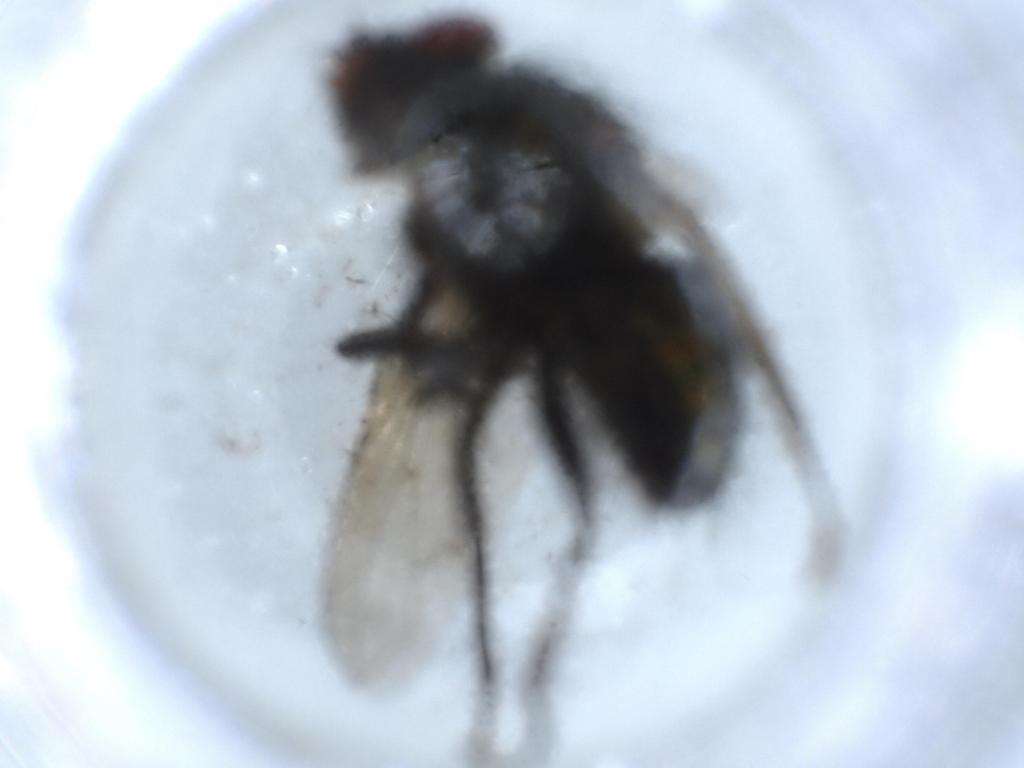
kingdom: Animalia
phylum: Arthropoda
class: Insecta
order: Diptera
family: Calliphoridae
